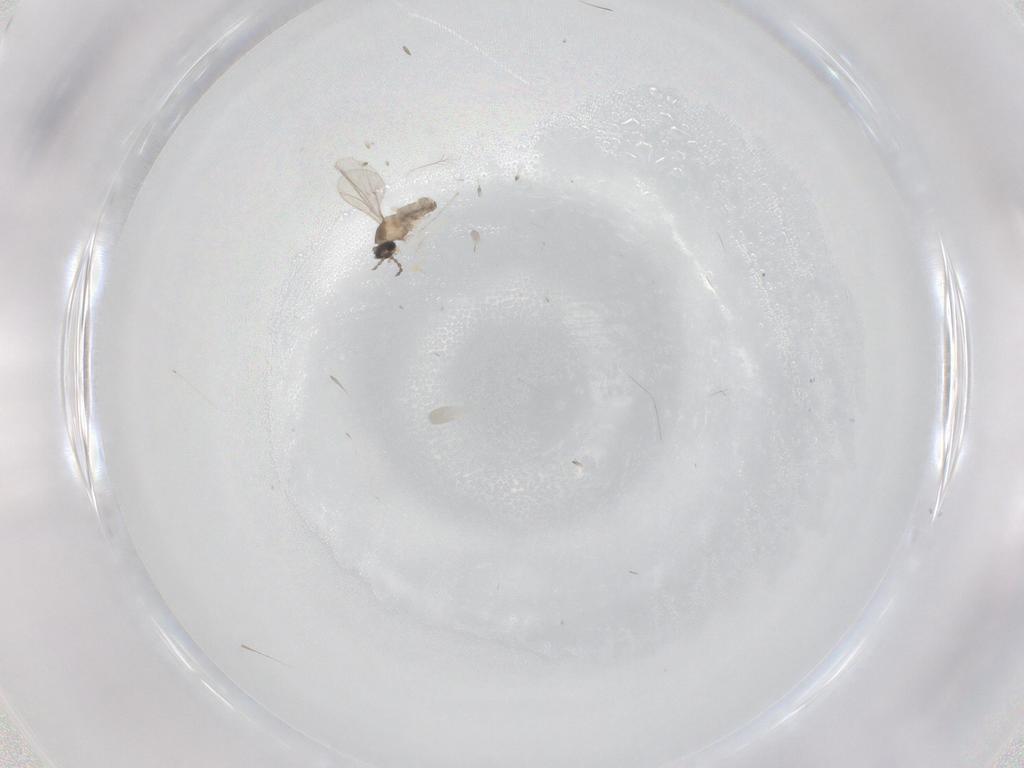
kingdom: Animalia
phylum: Arthropoda
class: Insecta
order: Diptera
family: Cecidomyiidae
